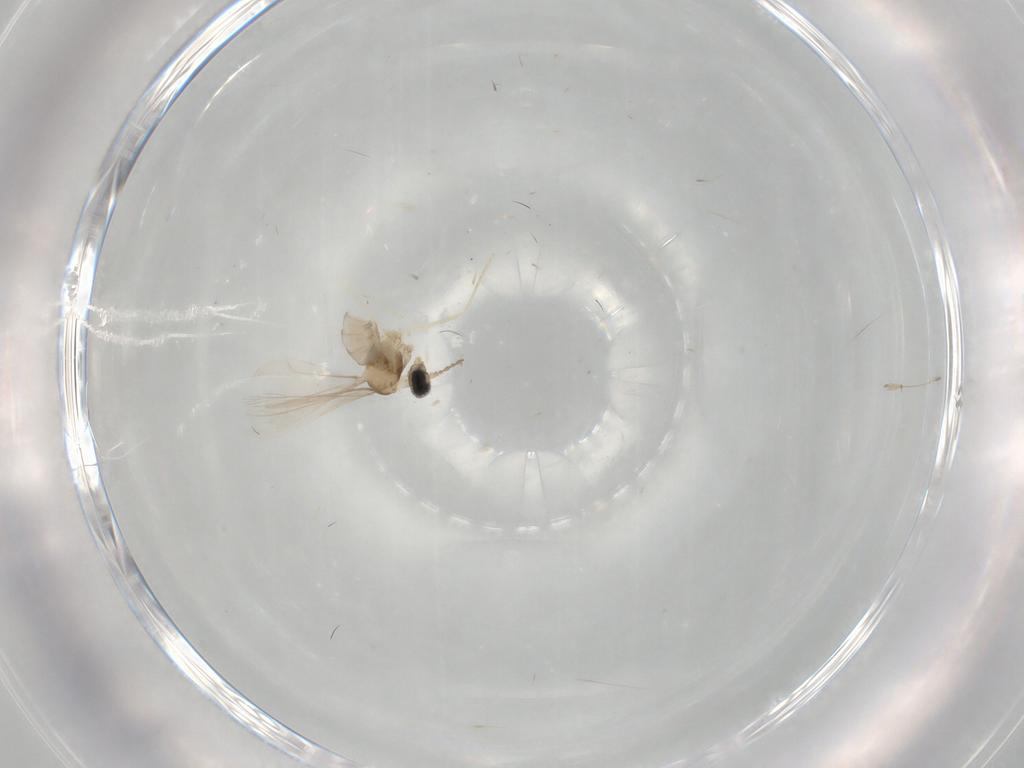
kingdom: Animalia
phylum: Arthropoda
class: Insecta
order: Diptera
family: Cecidomyiidae
